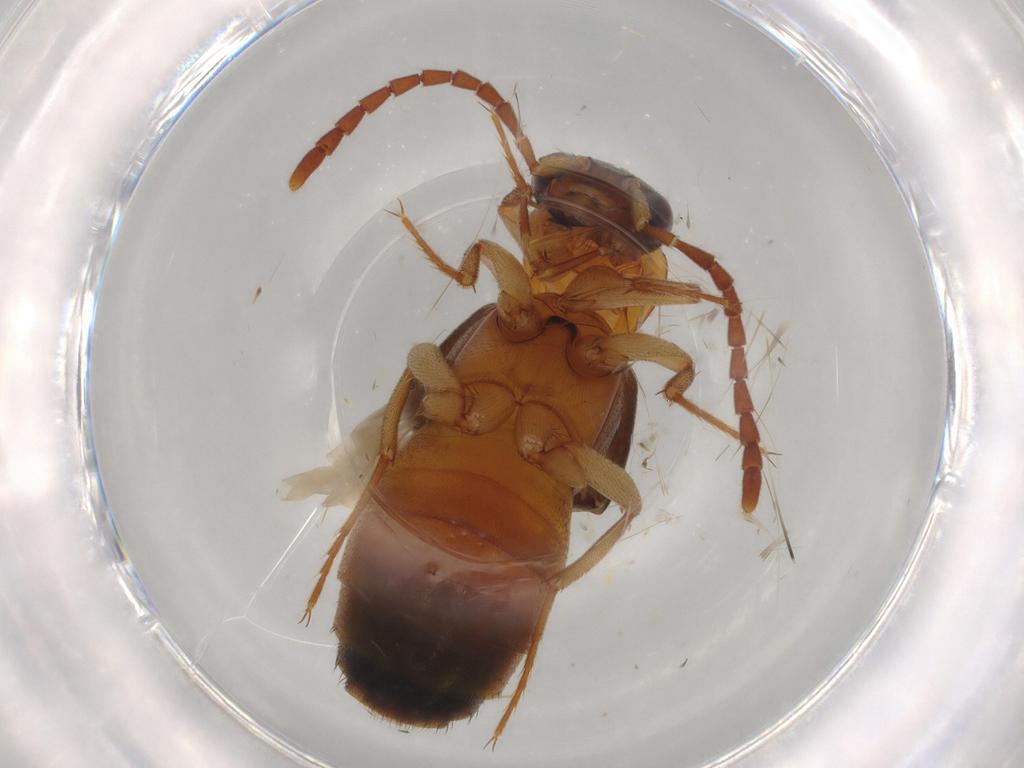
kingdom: Animalia
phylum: Arthropoda
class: Insecta
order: Coleoptera
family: Staphylinidae
